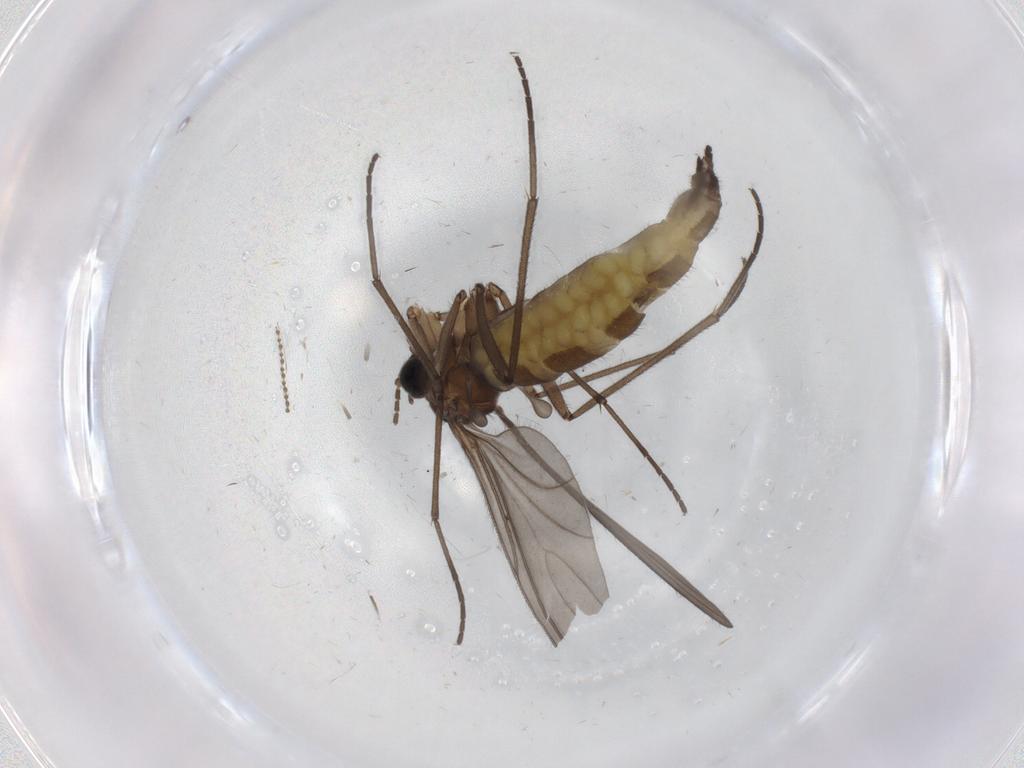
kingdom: Animalia
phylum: Arthropoda
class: Insecta
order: Diptera
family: Sciaridae
